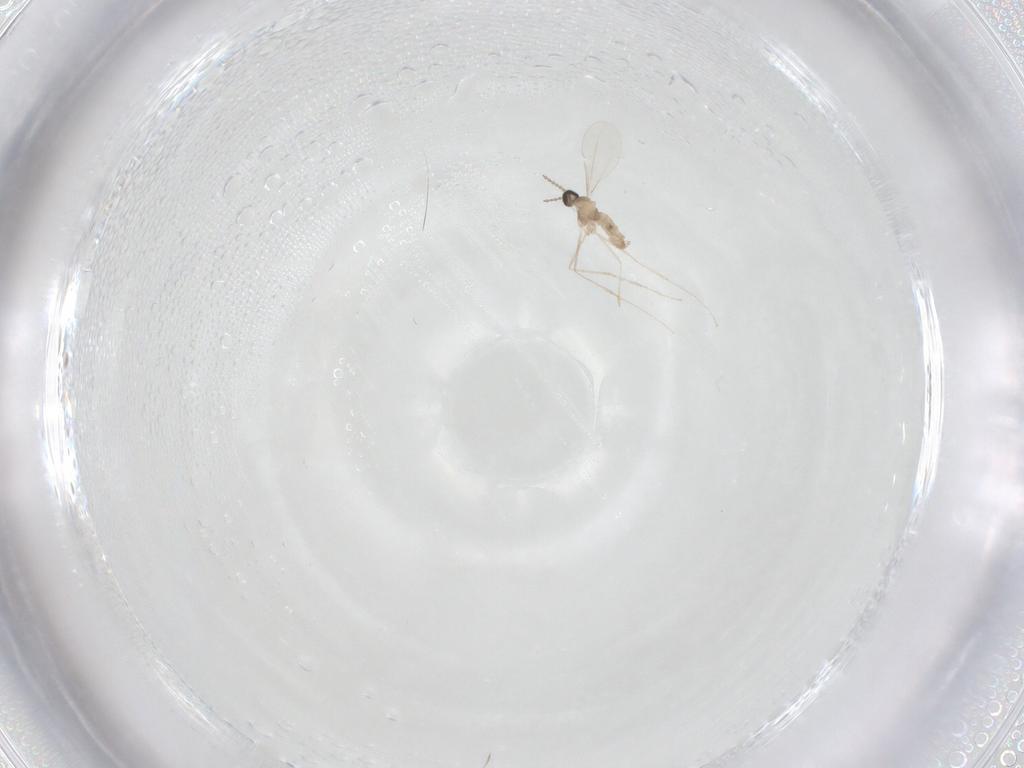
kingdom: Animalia
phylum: Arthropoda
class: Insecta
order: Diptera
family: Cecidomyiidae
